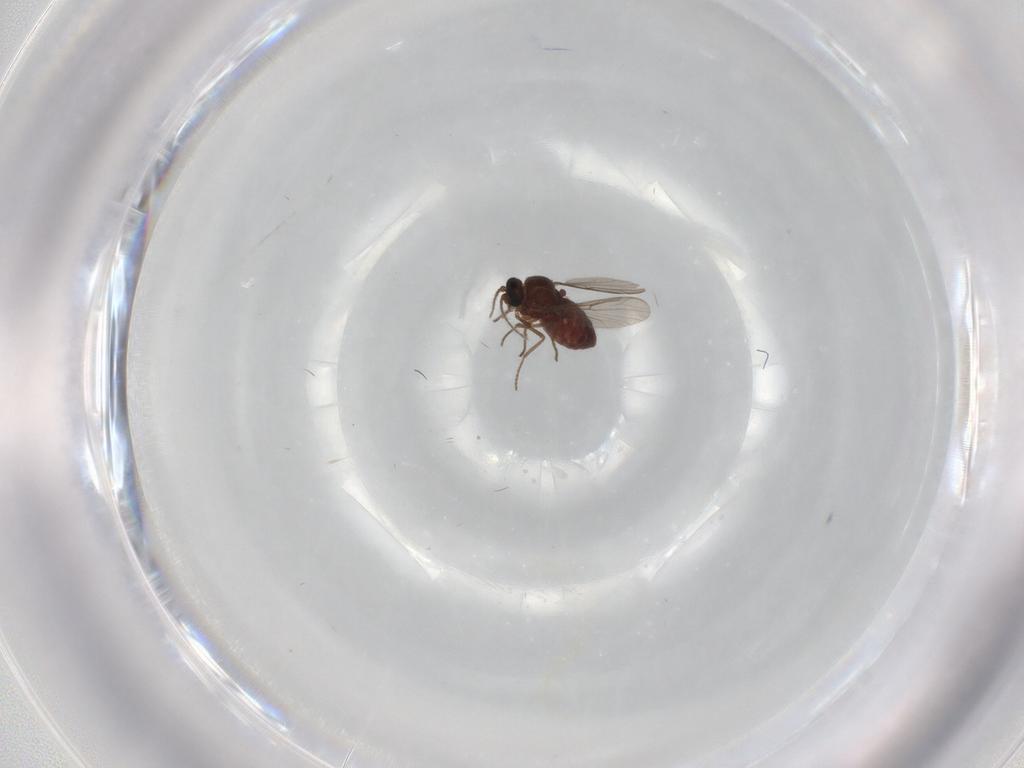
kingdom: Animalia
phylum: Arthropoda
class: Insecta
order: Diptera
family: Ceratopogonidae
